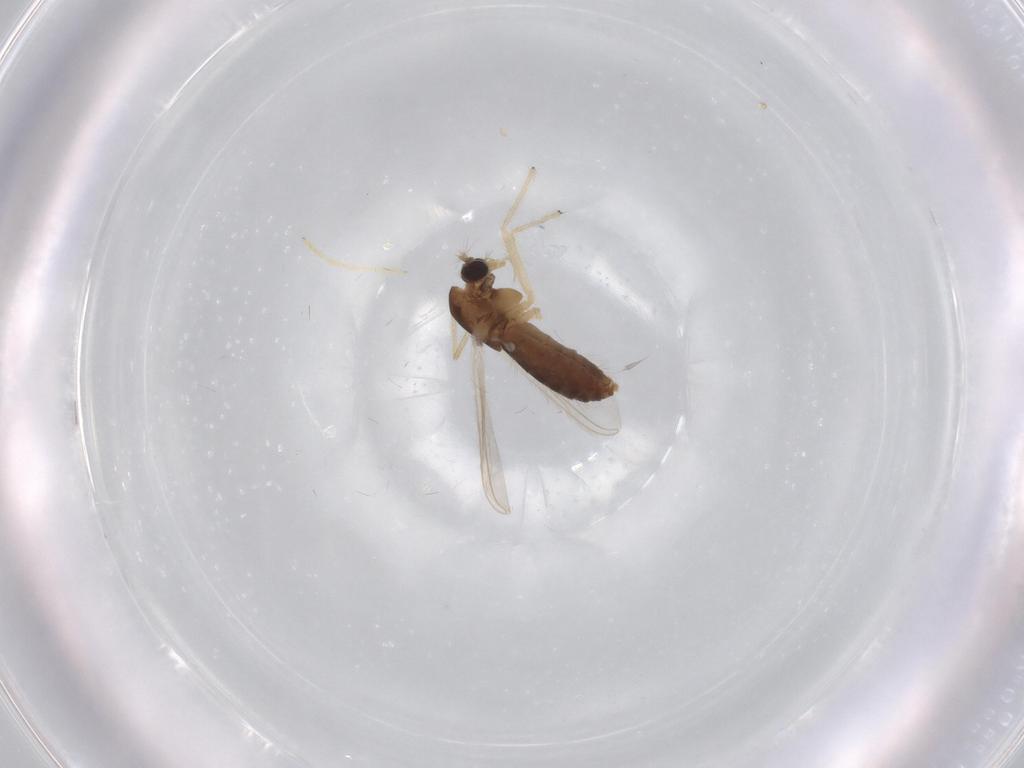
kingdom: Animalia
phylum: Arthropoda
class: Insecta
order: Diptera
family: Chironomidae
